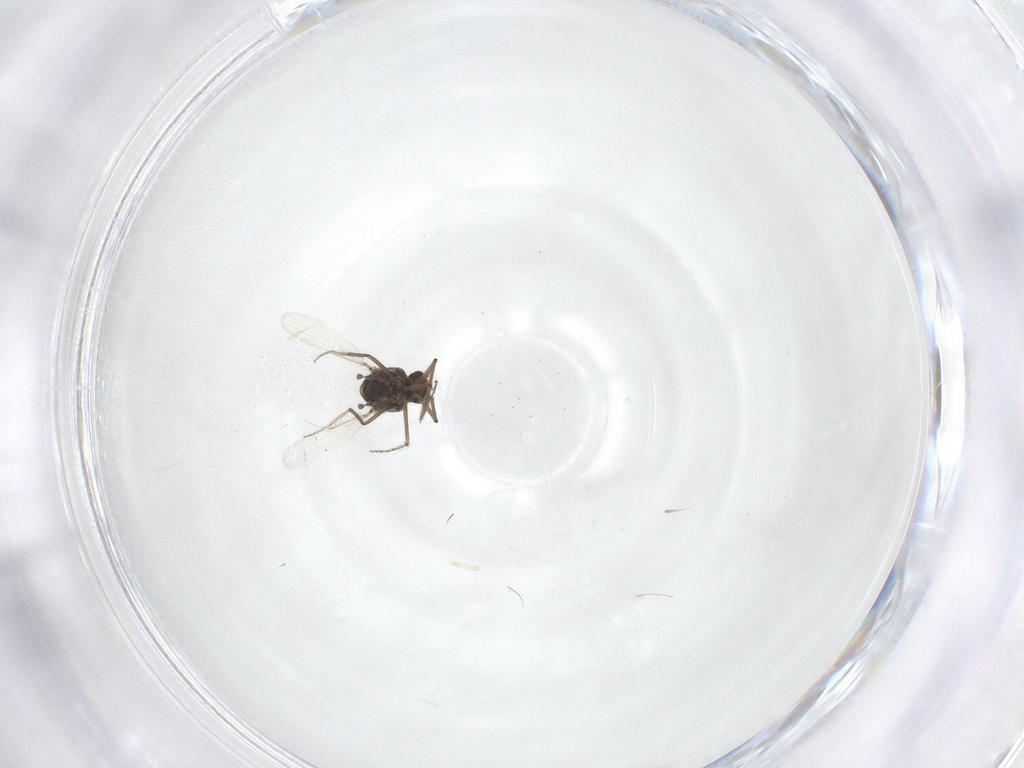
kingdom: Animalia
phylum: Arthropoda
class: Insecta
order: Diptera
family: Ceratopogonidae
